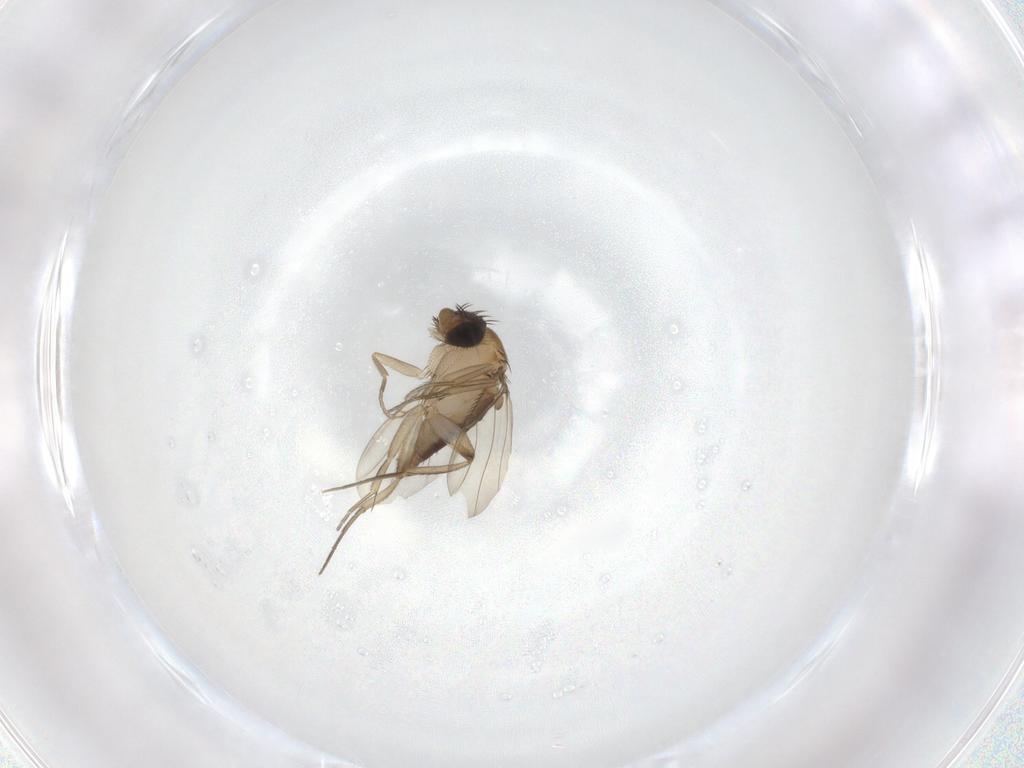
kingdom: Animalia
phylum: Arthropoda
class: Insecta
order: Diptera
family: Phoridae
